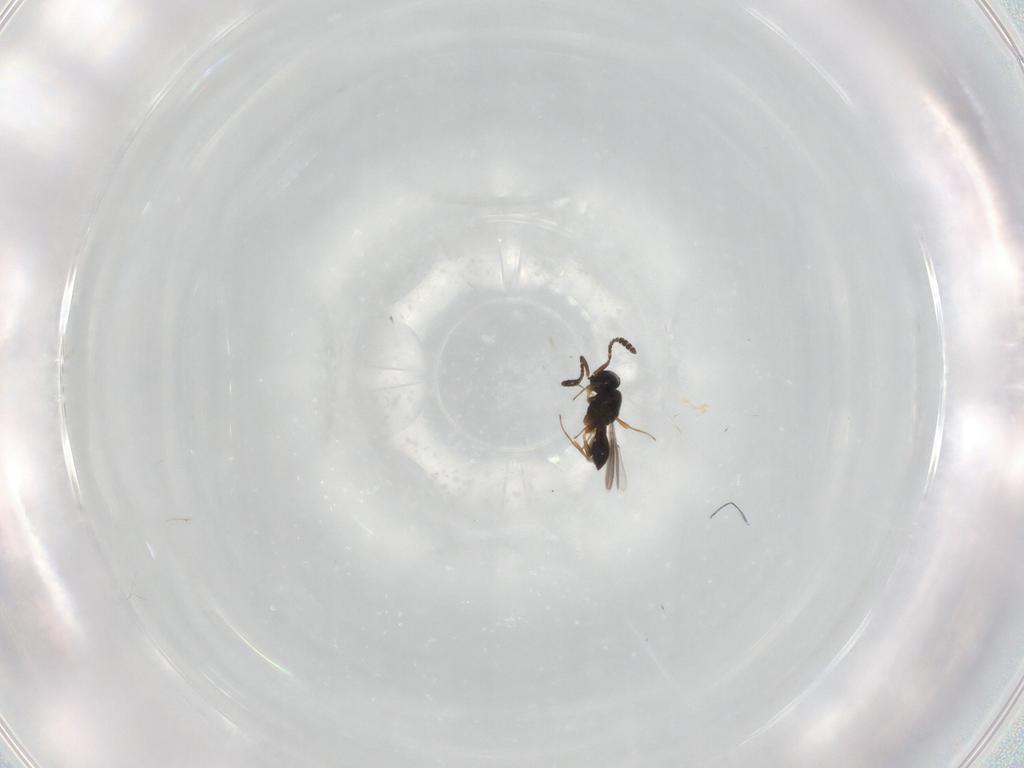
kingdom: Animalia
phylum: Arthropoda
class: Insecta
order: Hymenoptera
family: Scelionidae
